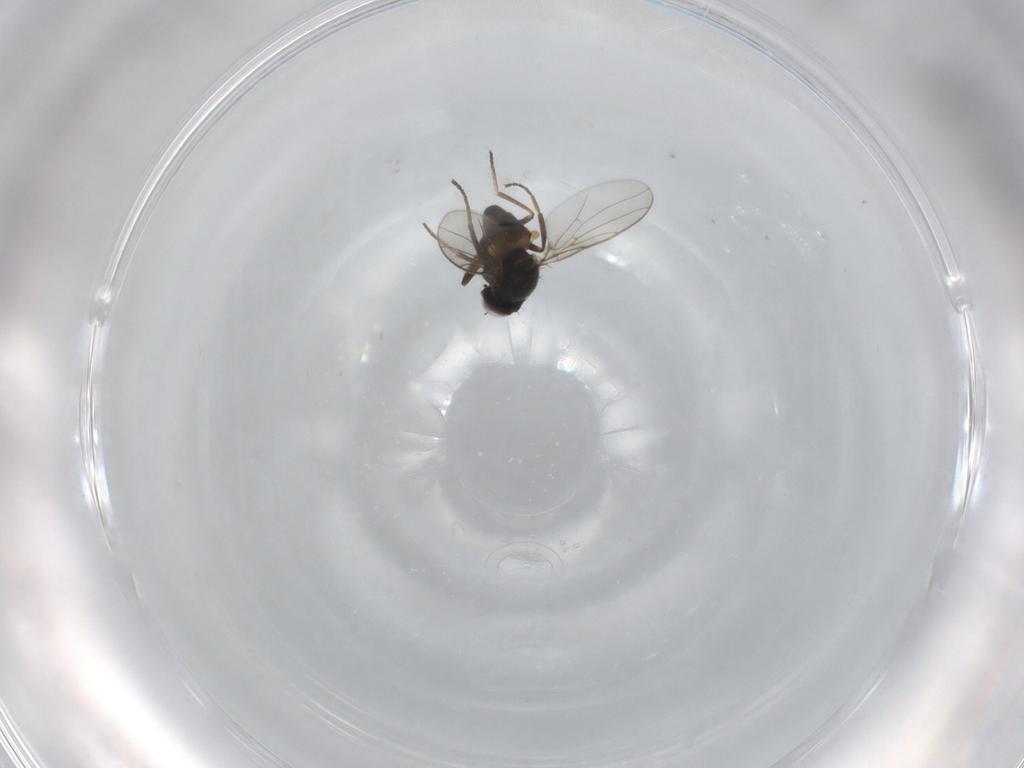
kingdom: Animalia
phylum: Arthropoda
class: Insecta
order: Diptera
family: Chloropidae
